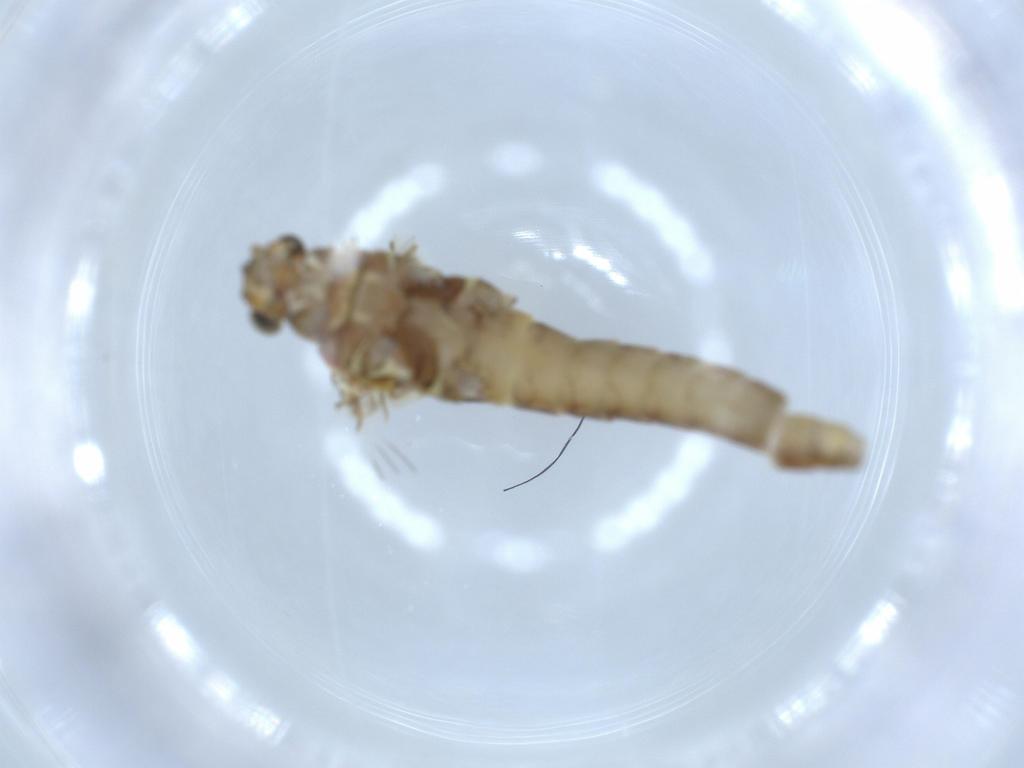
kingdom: Animalia
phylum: Arthropoda
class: Insecta
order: Ephemeroptera
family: Baetidae
